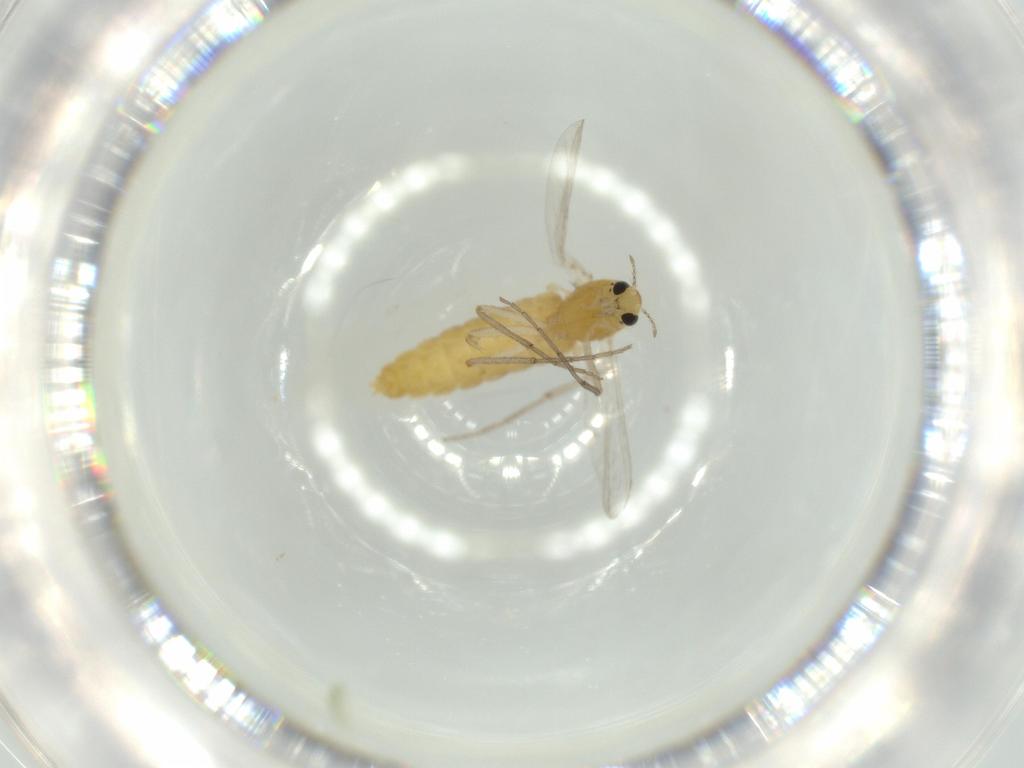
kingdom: Animalia
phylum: Arthropoda
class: Insecta
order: Diptera
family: Chironomidae
